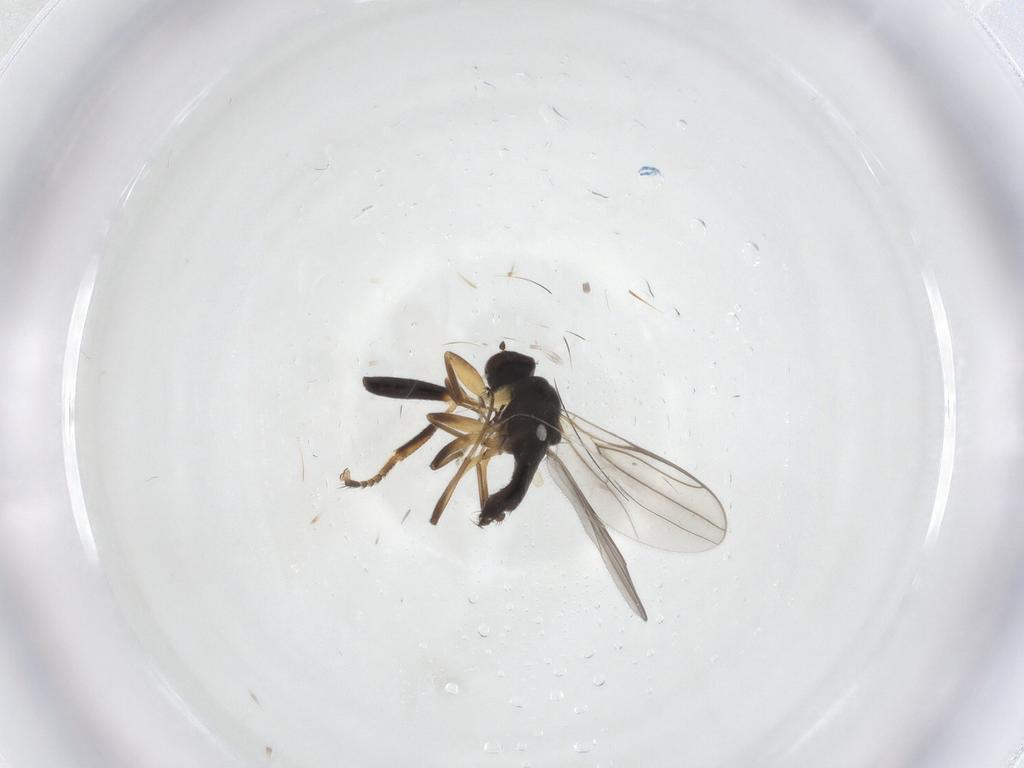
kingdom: Animalia
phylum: Arthropoda
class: Insecta
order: Diptera
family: Hybotidae
